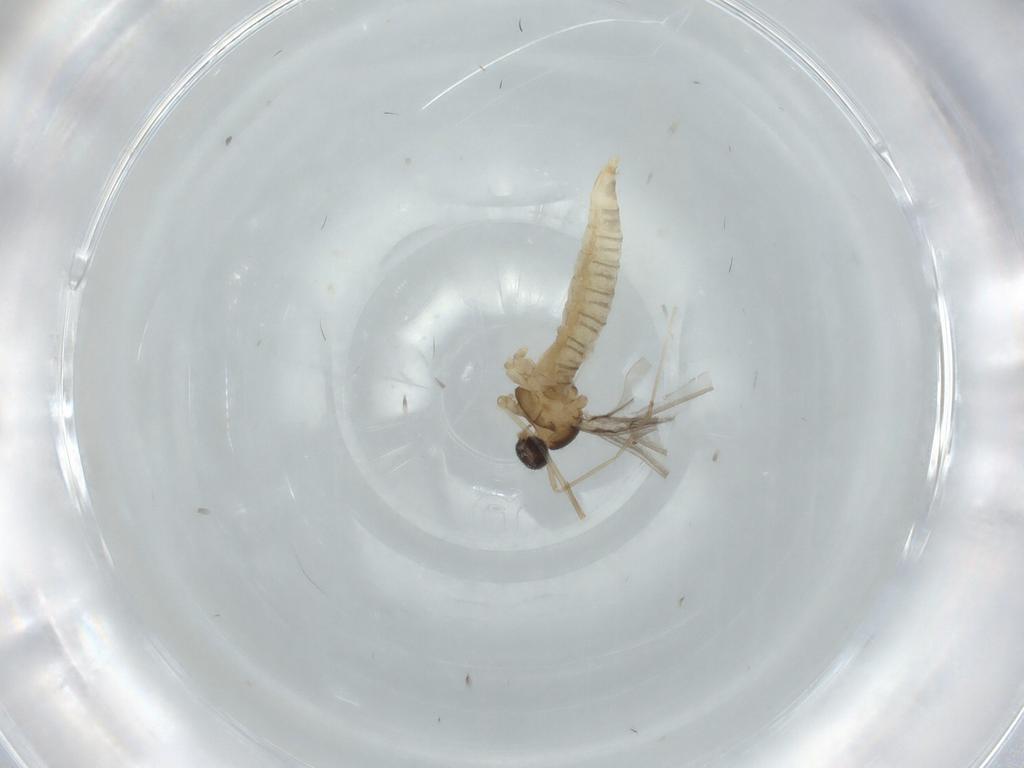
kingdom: Animalia
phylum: Arthropoda
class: Insecta
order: Diptera
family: Cecidomyiidae
